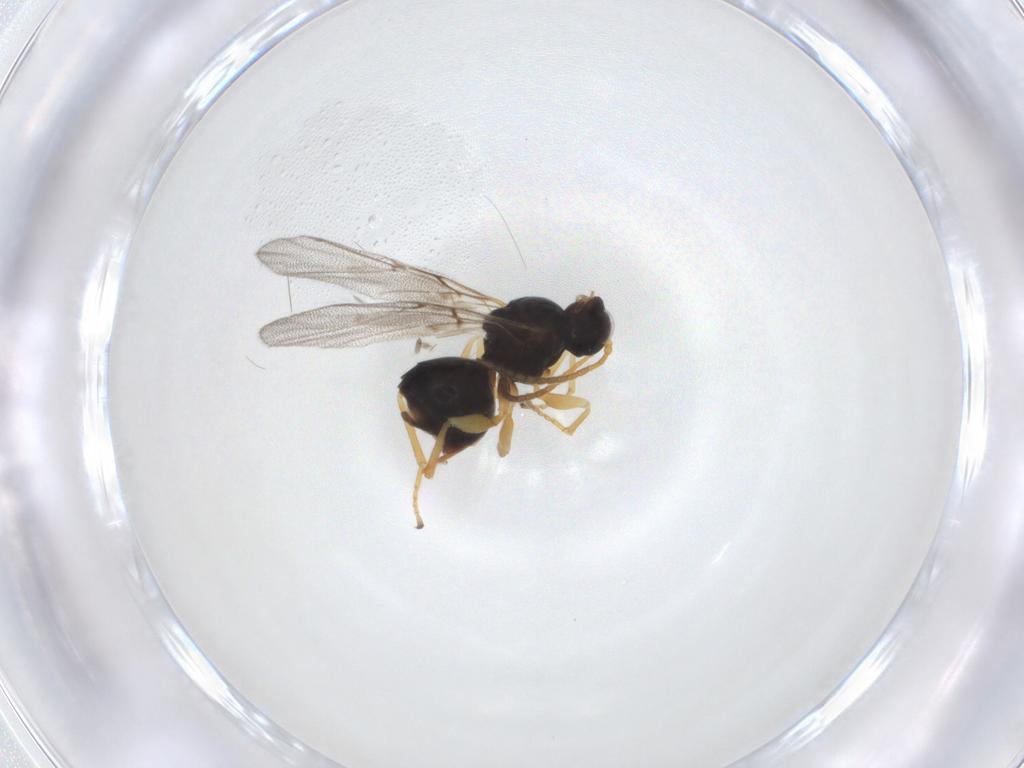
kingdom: Animalia
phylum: Arthropoda
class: Insecta
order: Hymenoptera
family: Cynipidae
